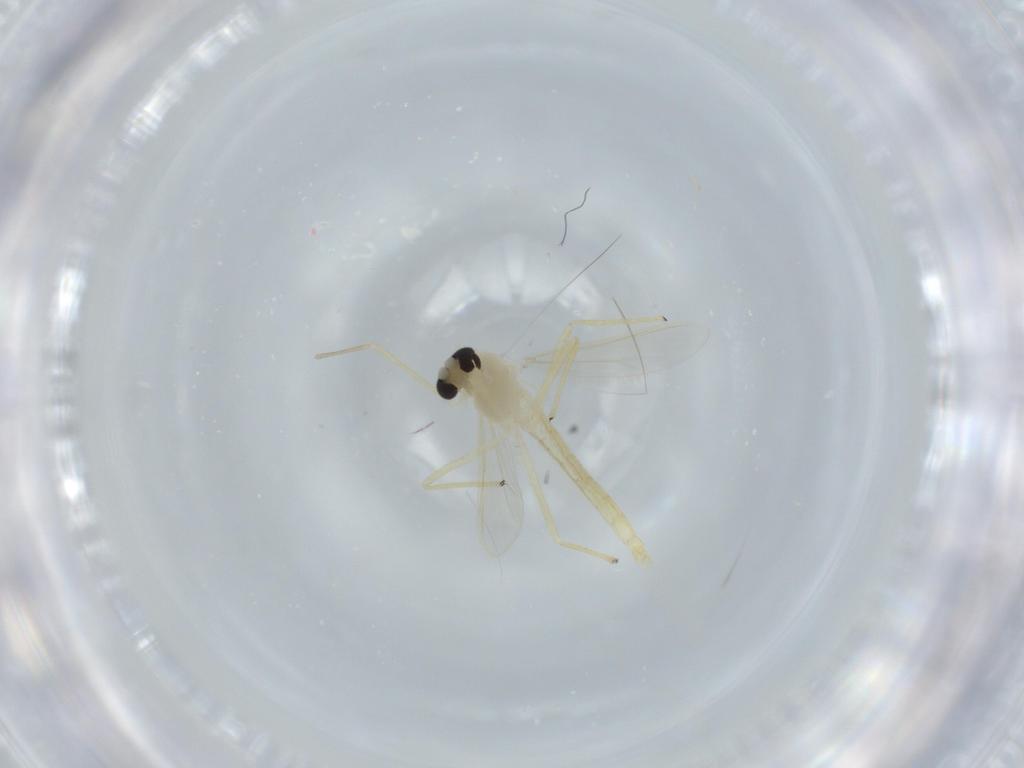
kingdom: Animalia
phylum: Arthropoda
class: Insecta
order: Diptera
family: Chironomidae
